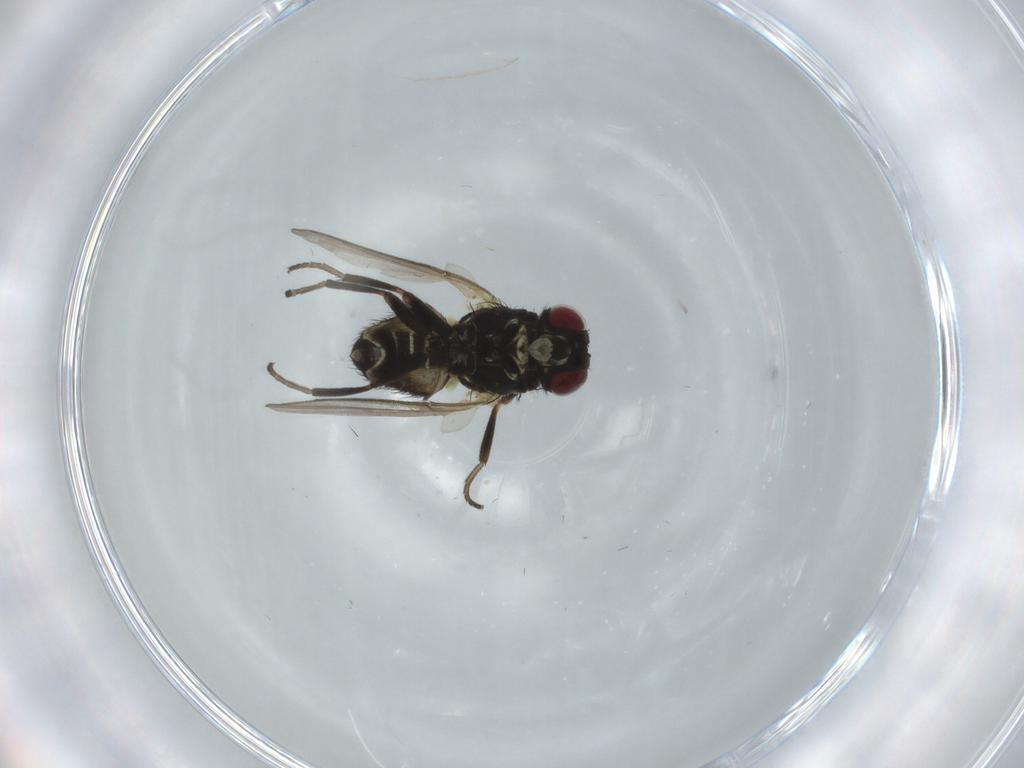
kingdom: Animalia
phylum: Arthropoda
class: Insecta
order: Diptera
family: Agromyzidae
